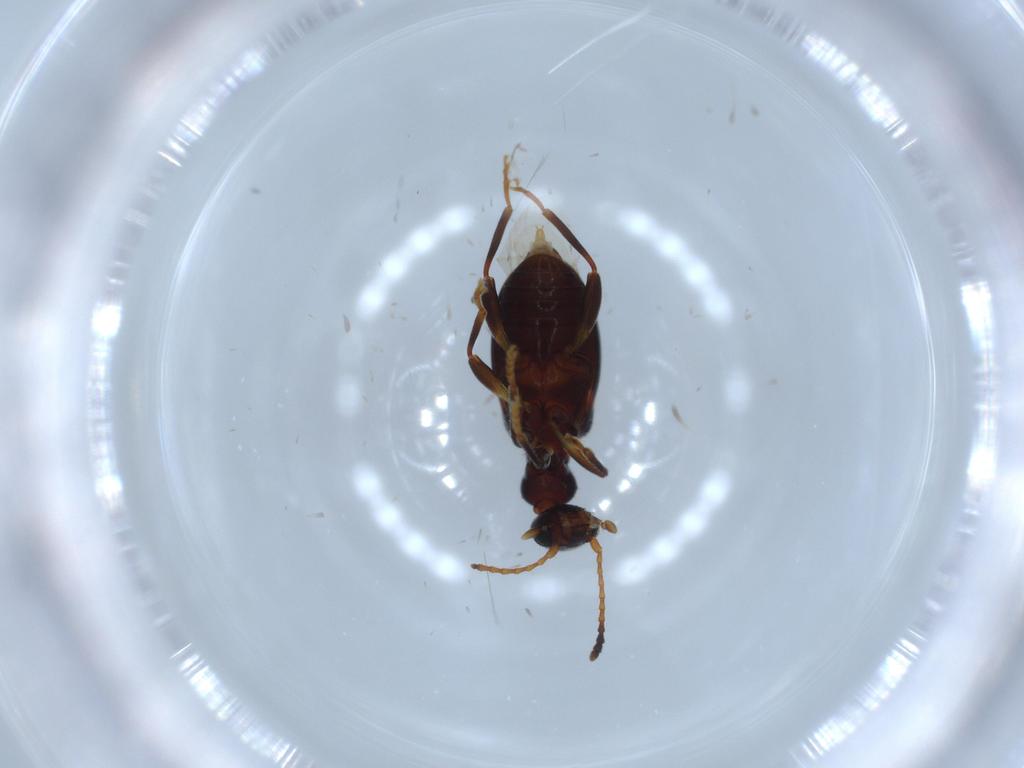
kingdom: Animalia
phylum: Arthropoda
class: Insecta
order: Coleoptera
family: Anthicidae
